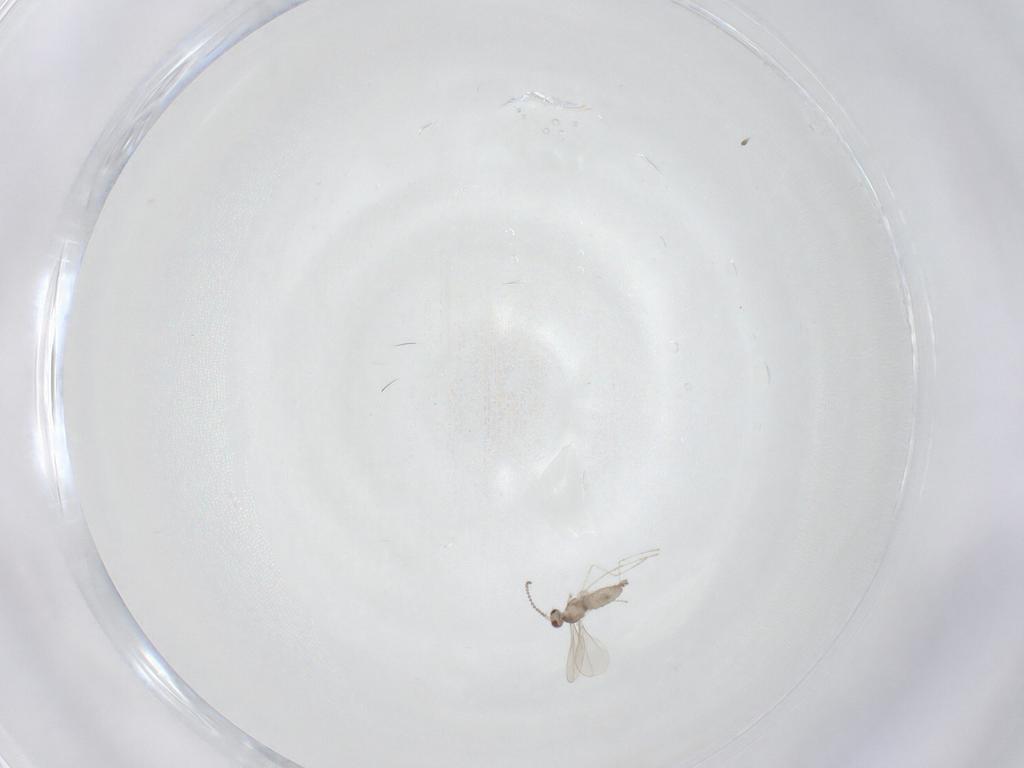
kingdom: Animalia
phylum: Arthropoda
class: Insecta
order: Diptera
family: Cecidomyiidae
